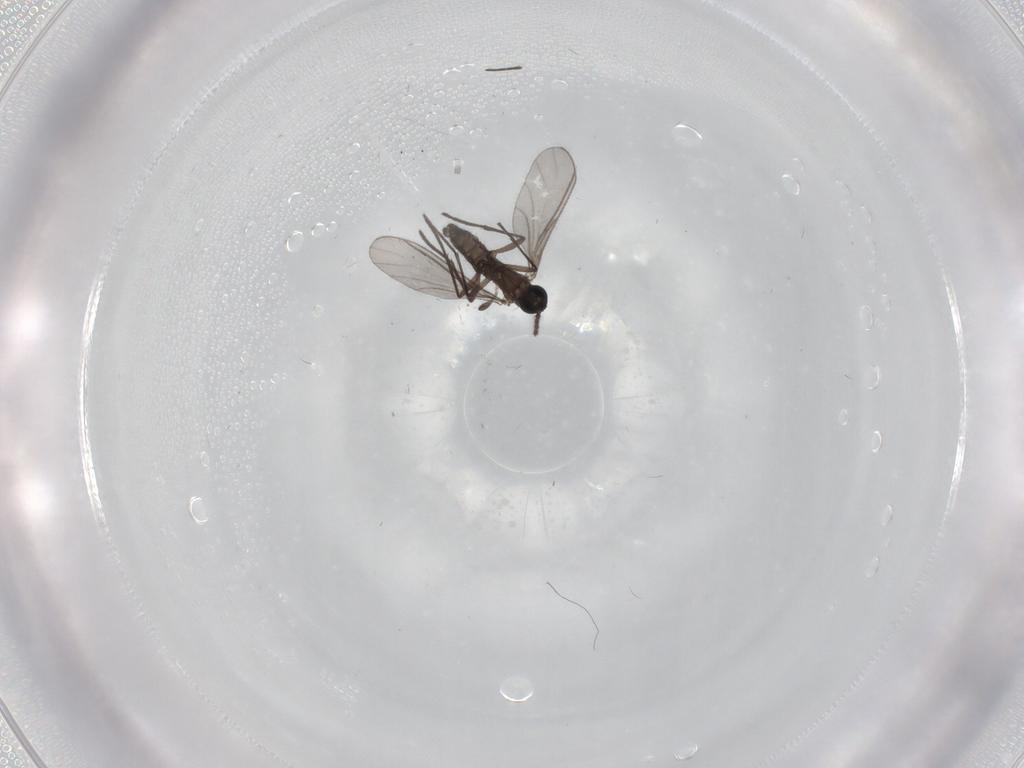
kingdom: Animalia
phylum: Arthropoda
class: Insecta
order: Diptera
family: Sciaridae
